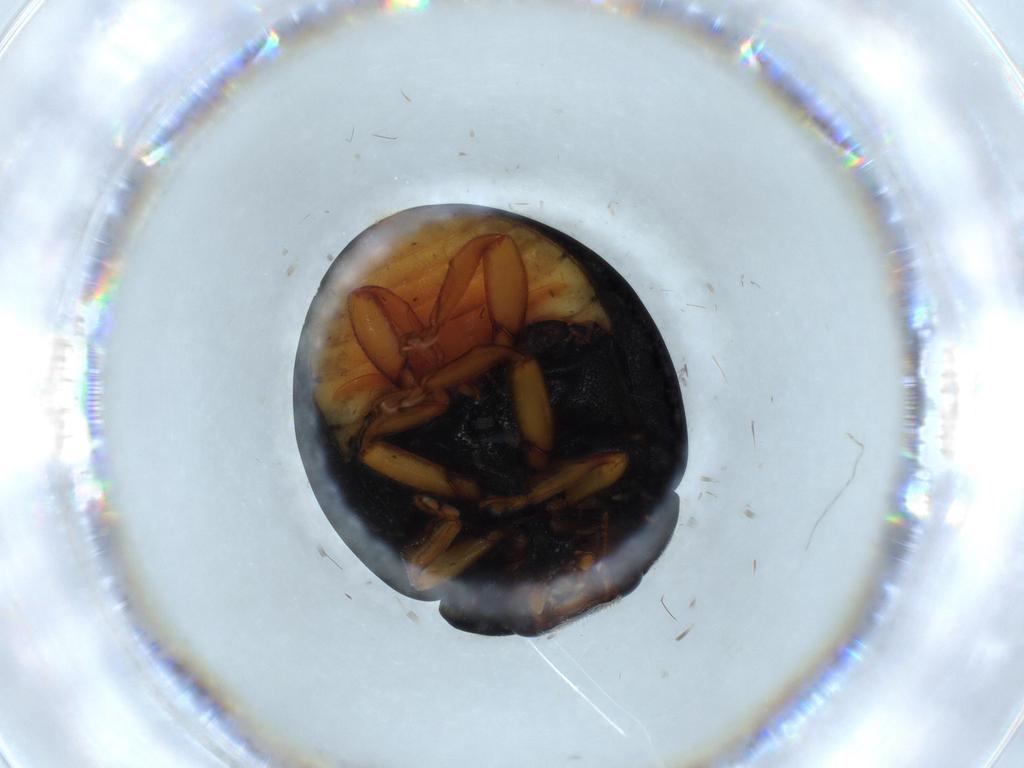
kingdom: Animalia
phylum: Arthropoda
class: Insecta
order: Coleoptera
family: Coccinellidae
